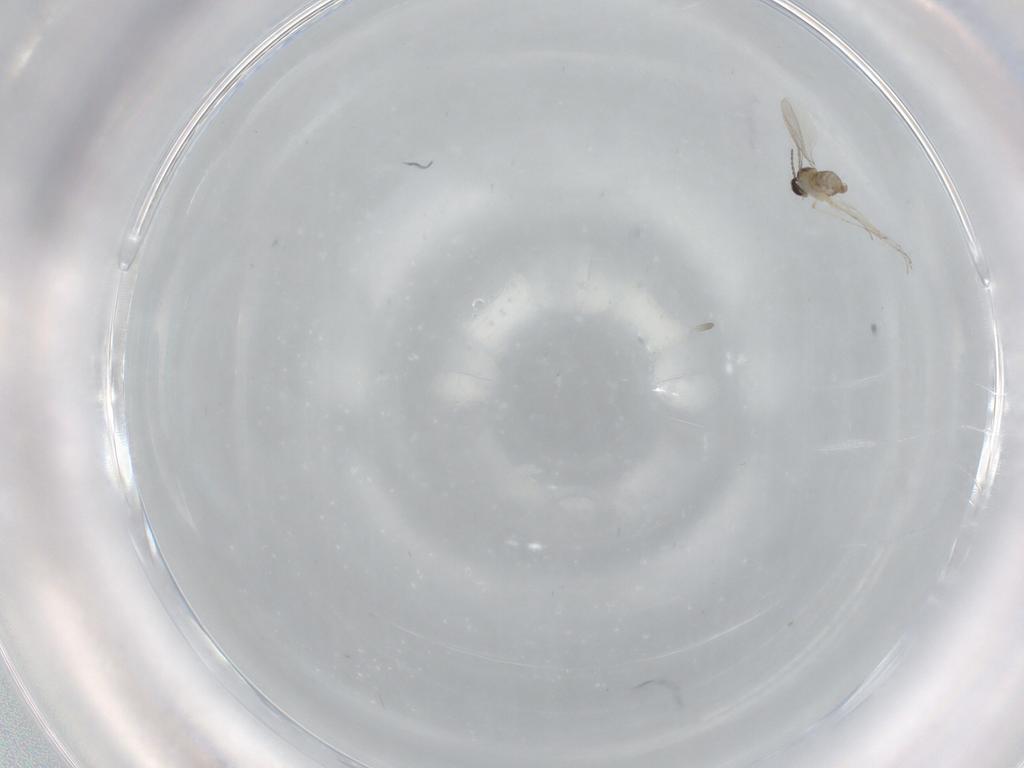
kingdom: Animalia
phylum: Arthropoda
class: Insecta
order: Diptera
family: Cecidomyiidae
